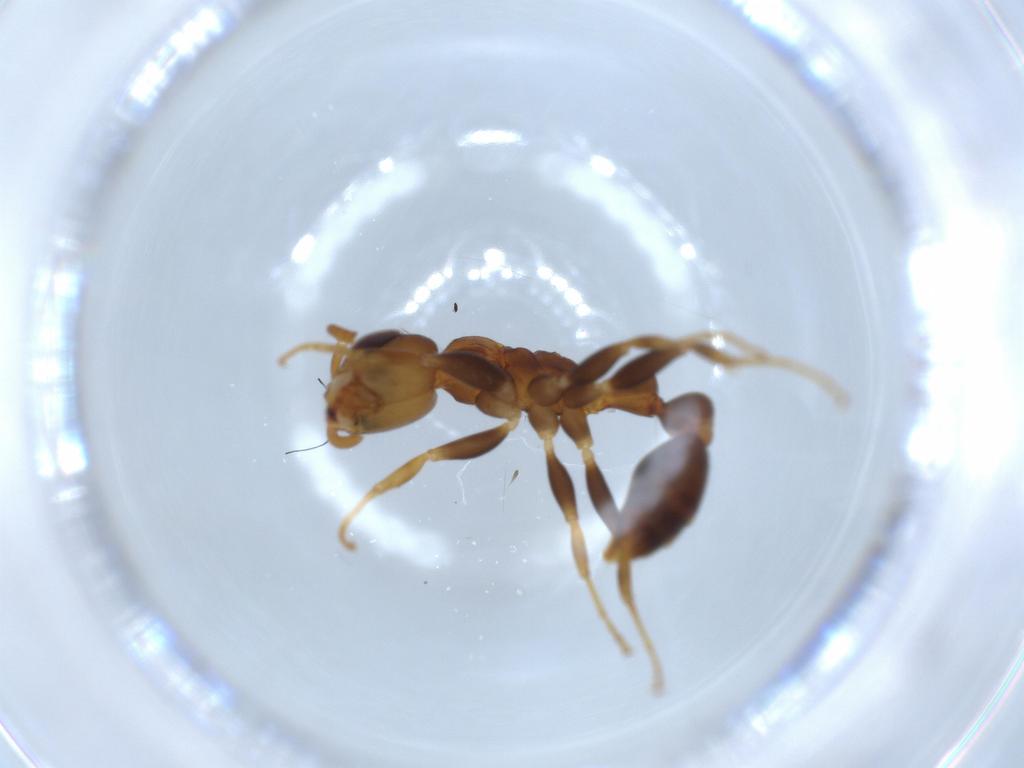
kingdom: Animalia
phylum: Arthropoda
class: Insecta
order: Hymenoptera
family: Formicidae
